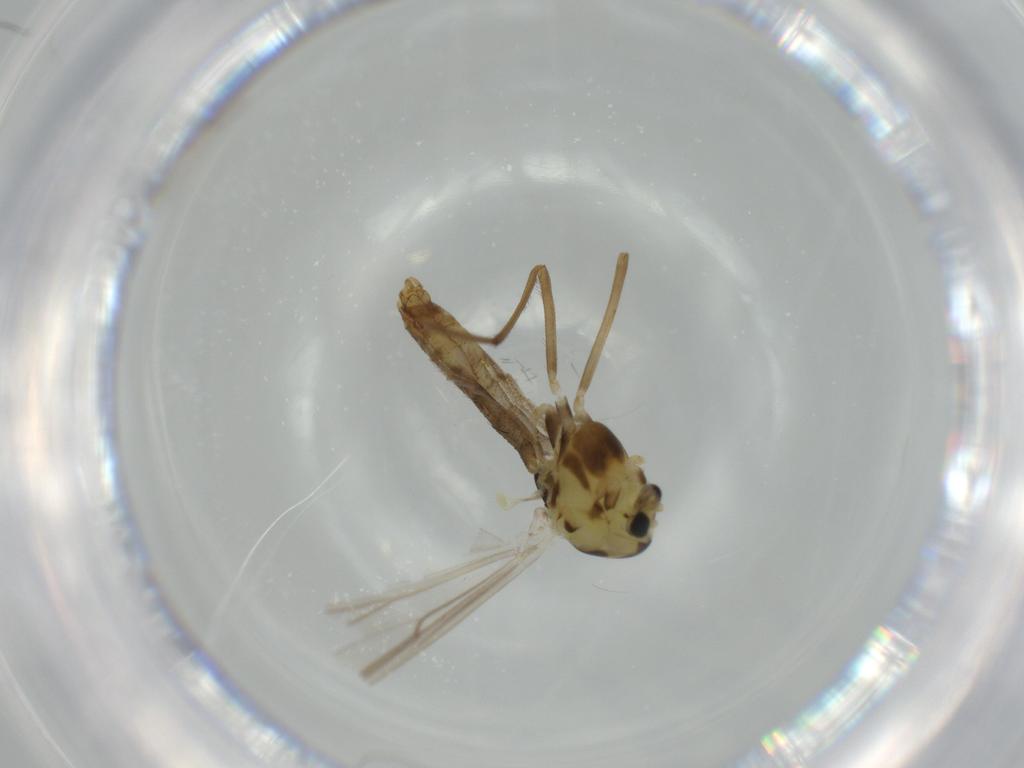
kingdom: Animalia
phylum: Arthropoda
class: Insecta
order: Diptera
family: Chironomidae
